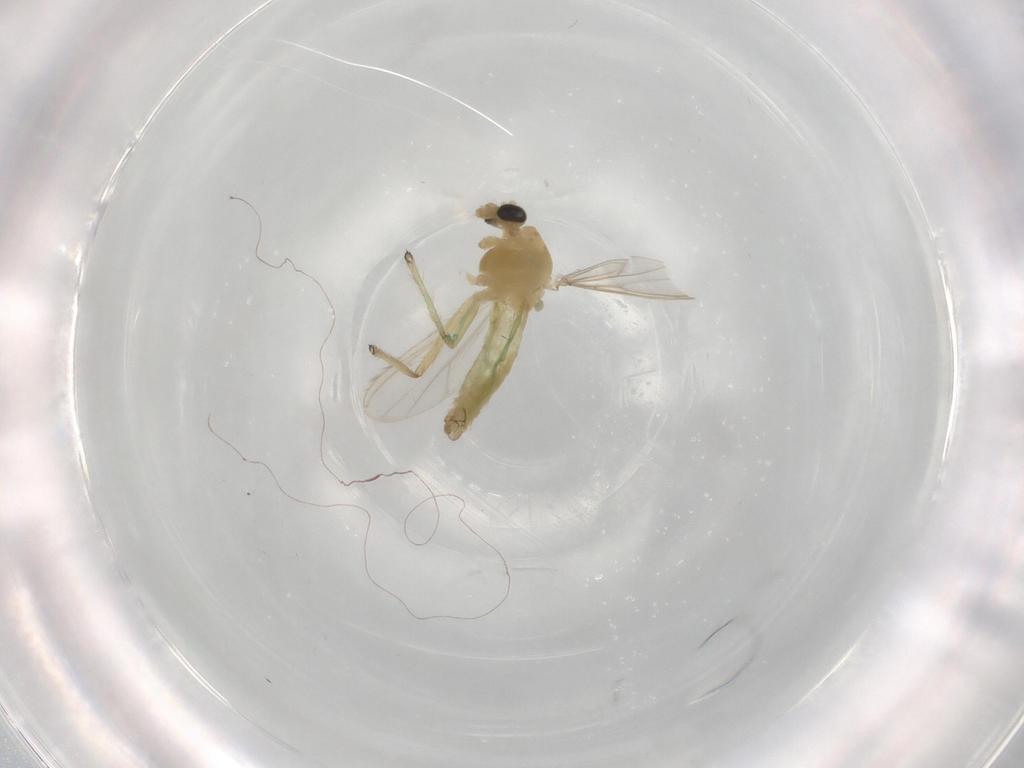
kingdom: Animalia
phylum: Arthropoda
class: Insecta
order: Diptera
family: Chironomidae
